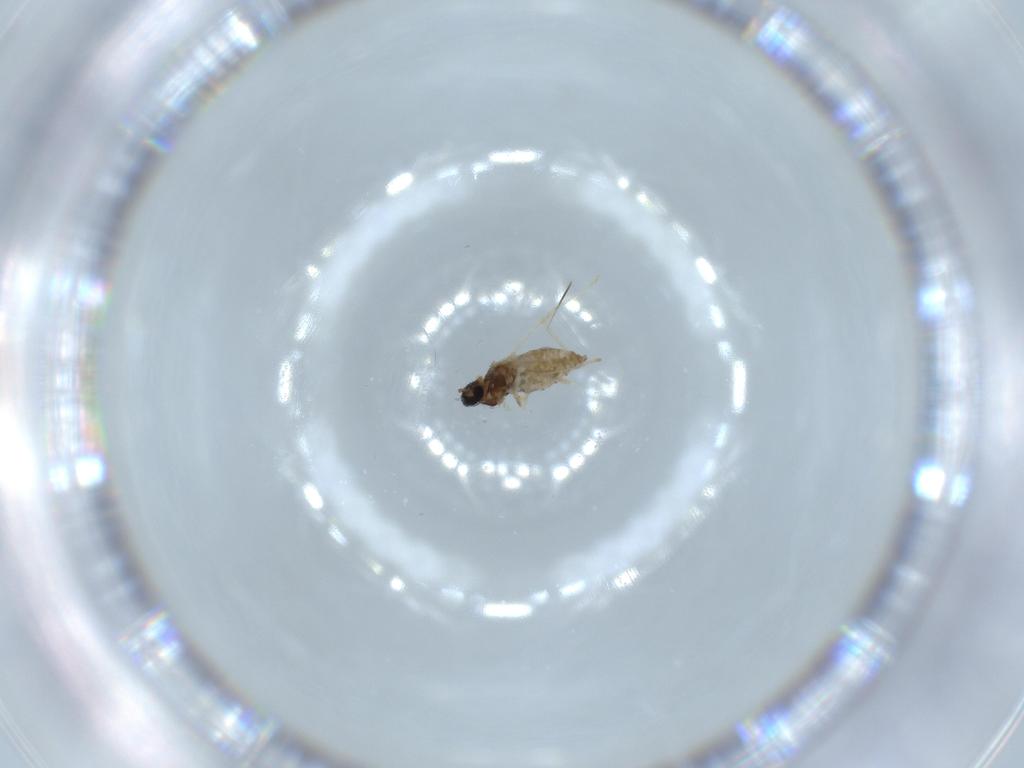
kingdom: Animalia
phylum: Arthropoda
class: Insecta
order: Diptera
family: Cecidomyiidae
